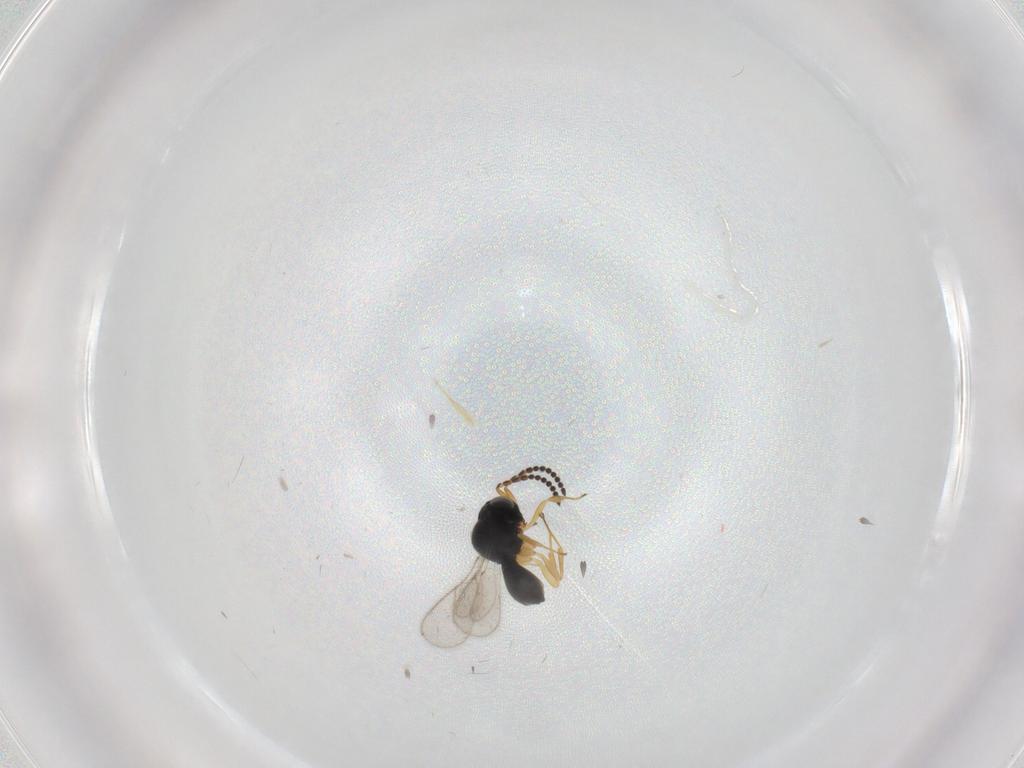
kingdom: Animalia
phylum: Arthropoda
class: Insecta
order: Hymenoptera
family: Scelionidae
